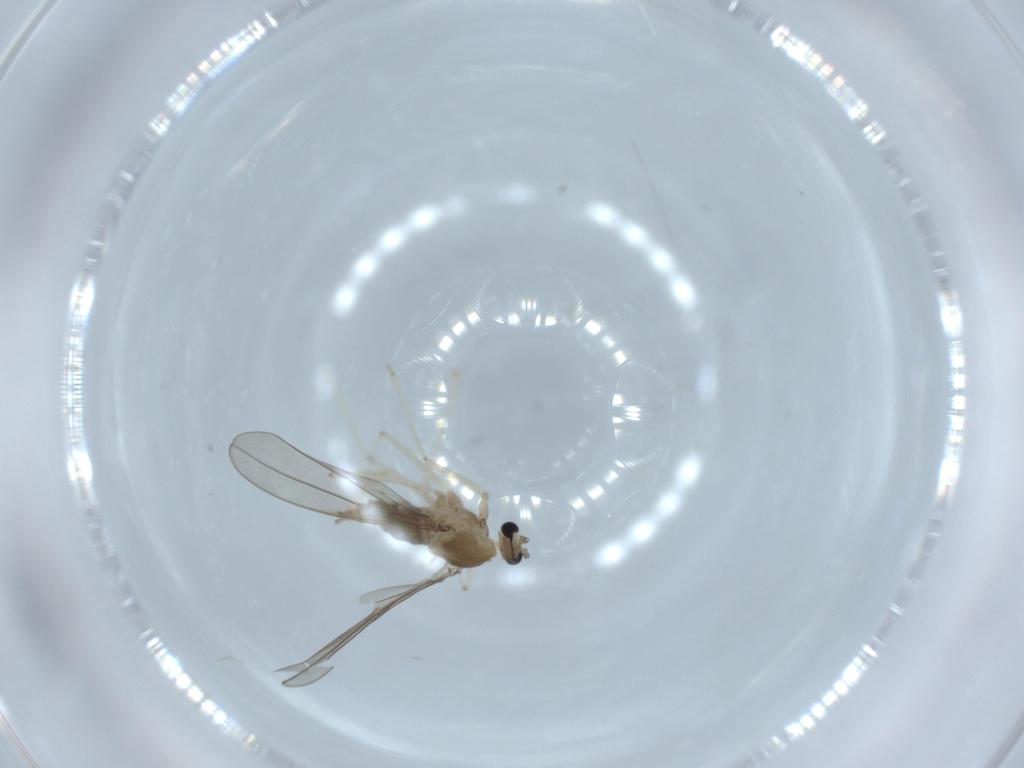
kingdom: Animalia
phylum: Arthropoda
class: Insecta
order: Diptera
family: Cecidomyiidae
